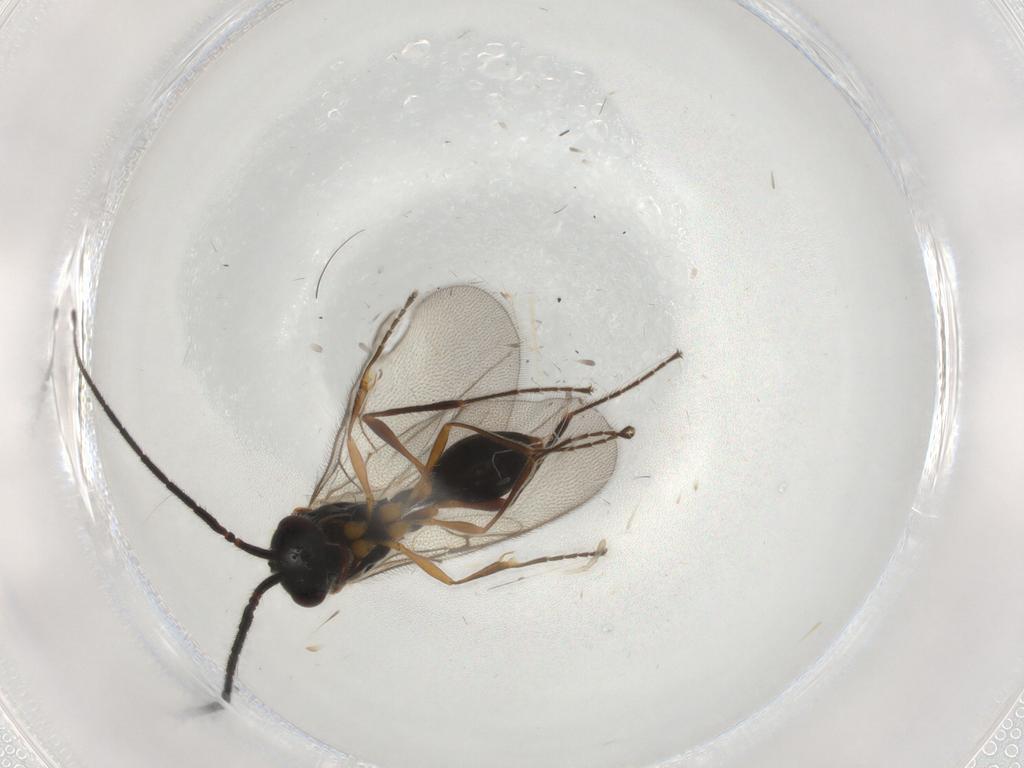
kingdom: Animalia
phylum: Arthropoda
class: Insecta
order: Hymenoptera
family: Diapriidae
